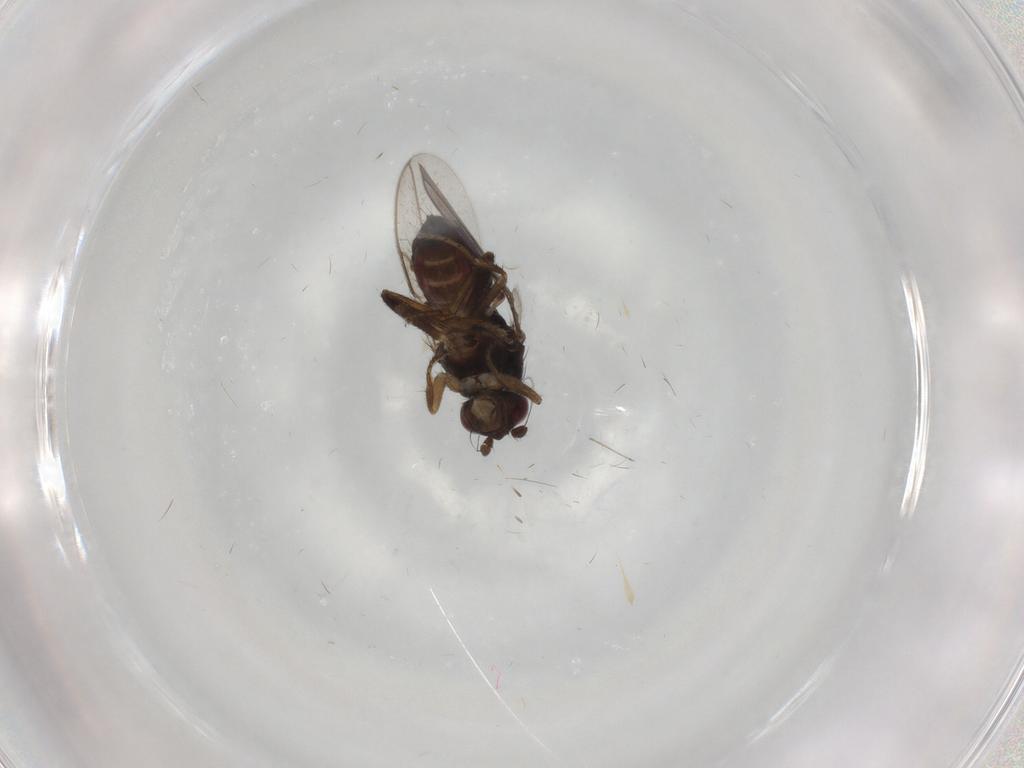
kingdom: Animalia
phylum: Arthropoda
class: Insecta
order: Diptera
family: Sphaeroceridae
